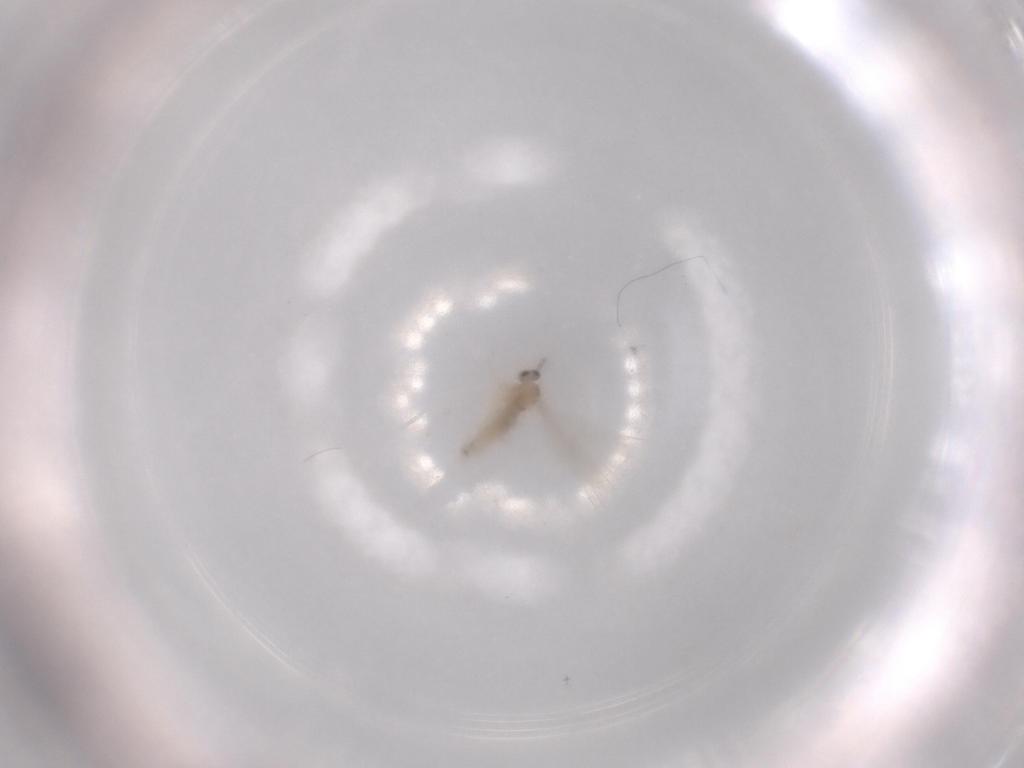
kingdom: Animalia
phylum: Arthropoda
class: Insecta
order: Diptera
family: Cecidomyiidae
